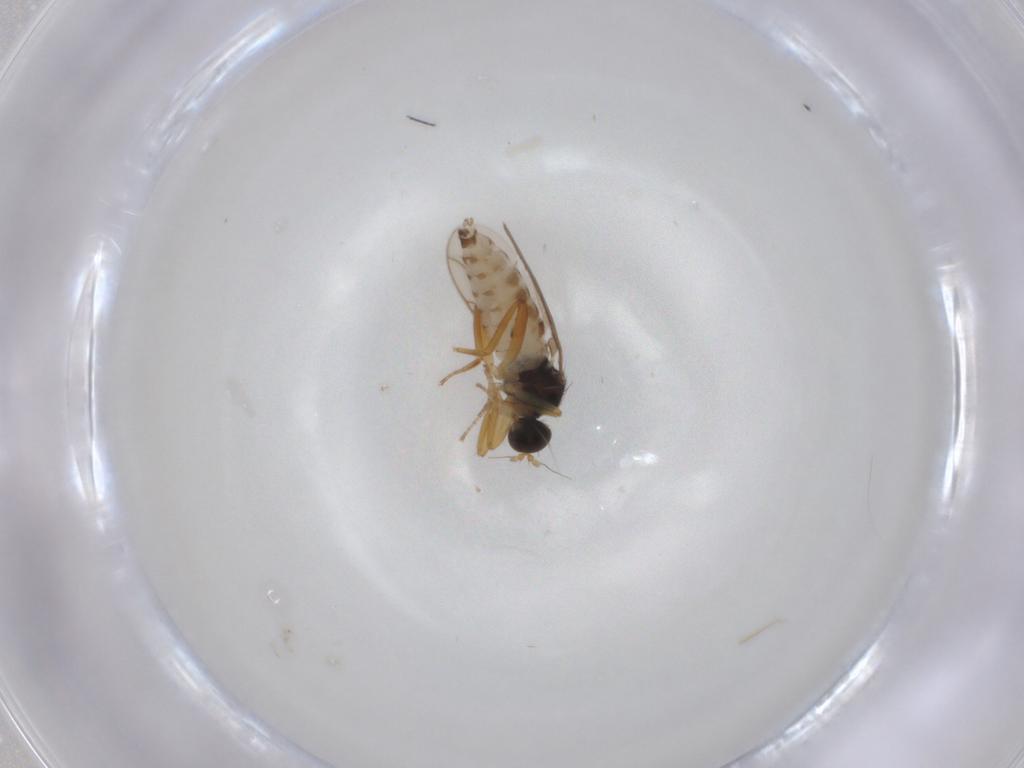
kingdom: Animalia
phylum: Arthropoda
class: Insecta
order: Diptera
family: Hybotidae
